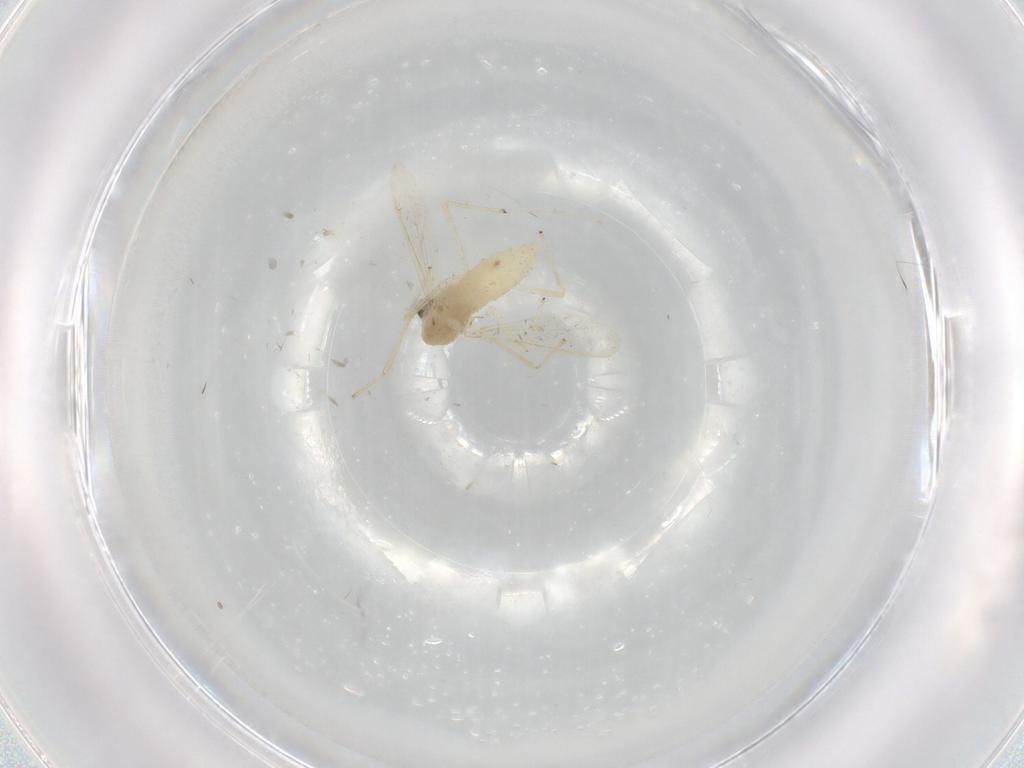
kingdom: Animalia
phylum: Arthropoda
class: Insecta
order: Diptera
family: Chironomidae
